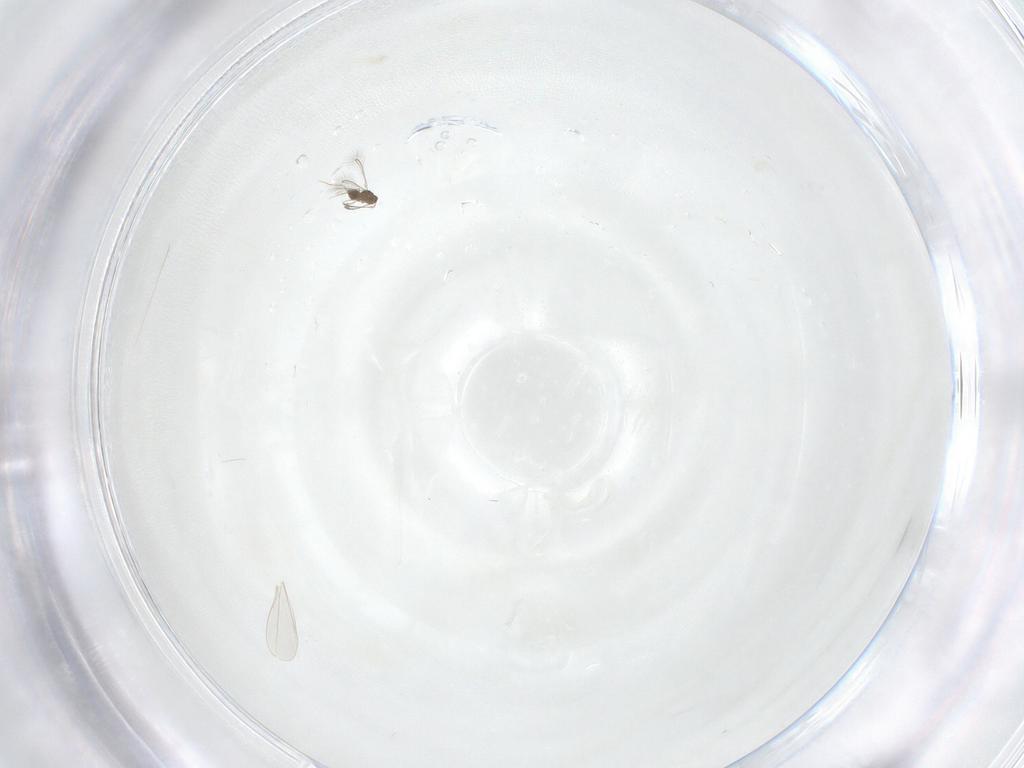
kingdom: Animalia
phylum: Arthropoda
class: Insecta
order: Hymenoptera
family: Mymaridae
